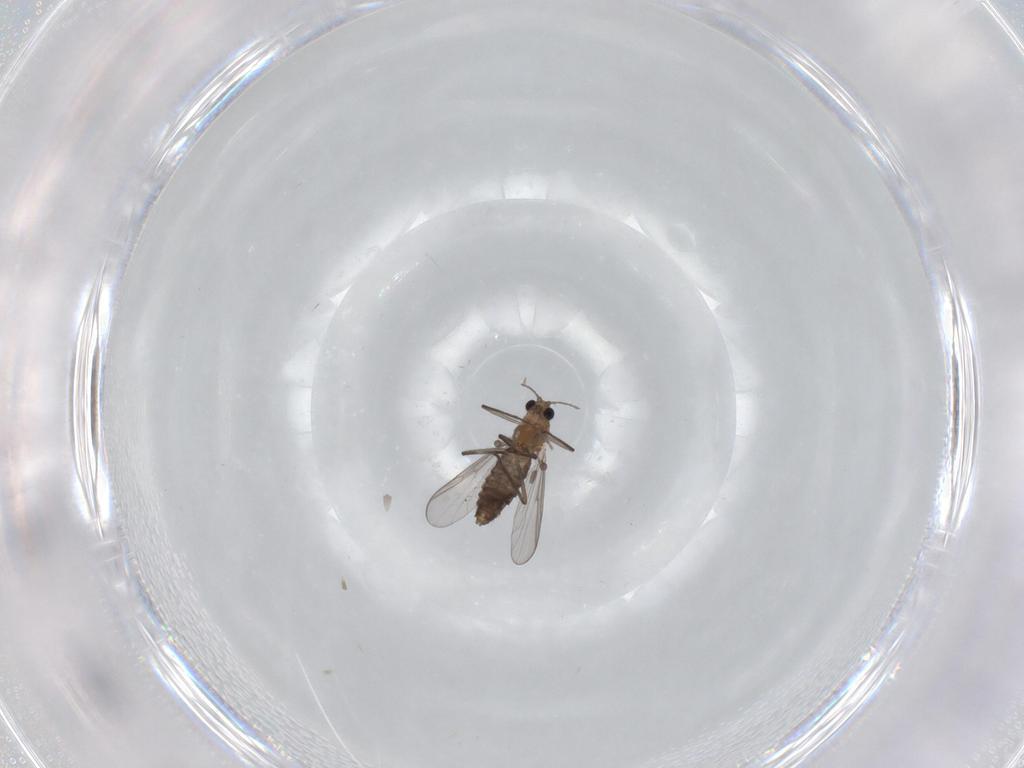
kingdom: Animalia
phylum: Arthropoda
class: Insecta
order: Diptera
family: Chironomidae
